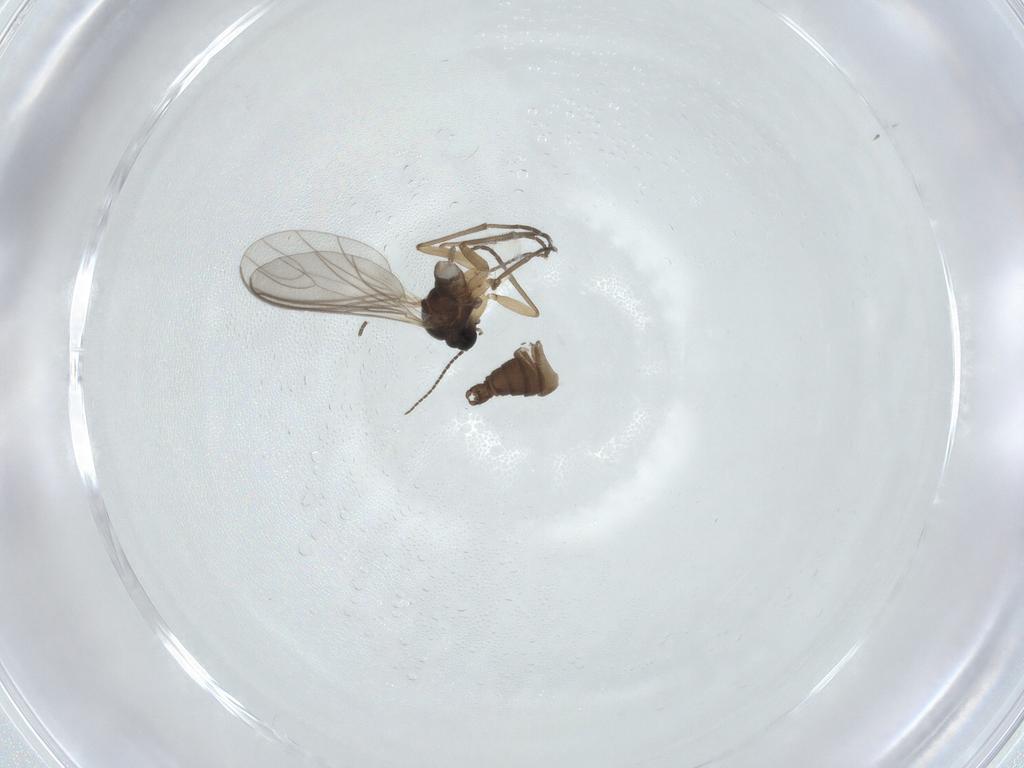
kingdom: Animalia
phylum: Arthropoda
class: Insecta
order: Diptera
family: Sciaridae
